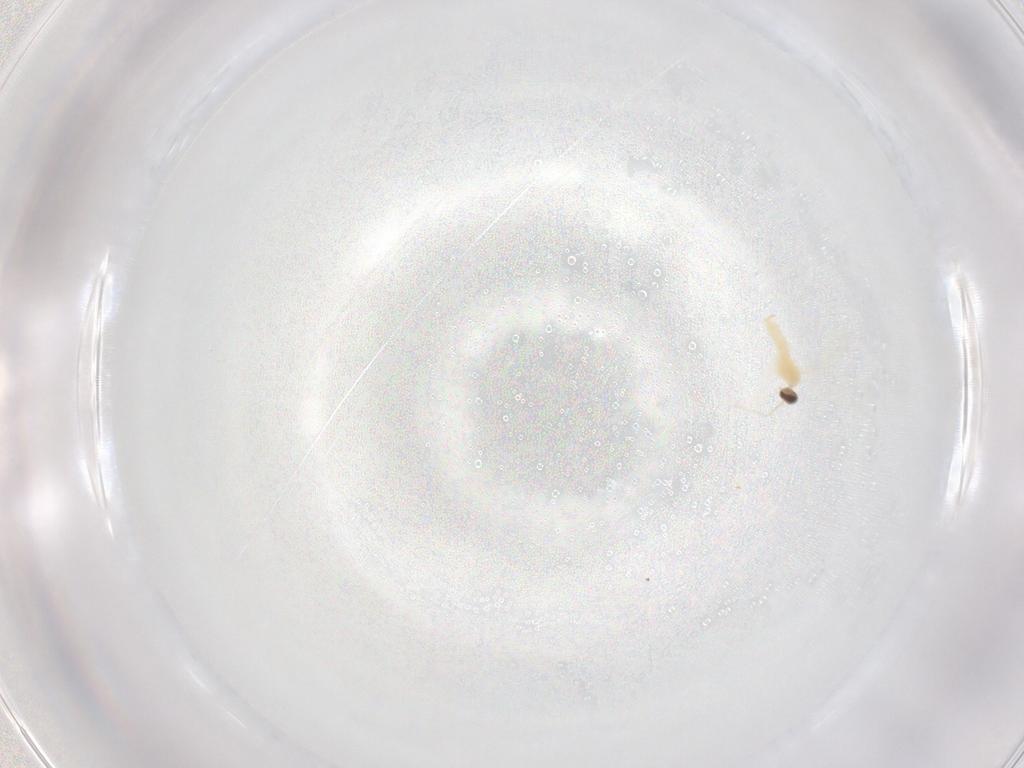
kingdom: Animalia
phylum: Arthropoda
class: Insecta
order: Diptera
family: Cecidomyiidae
